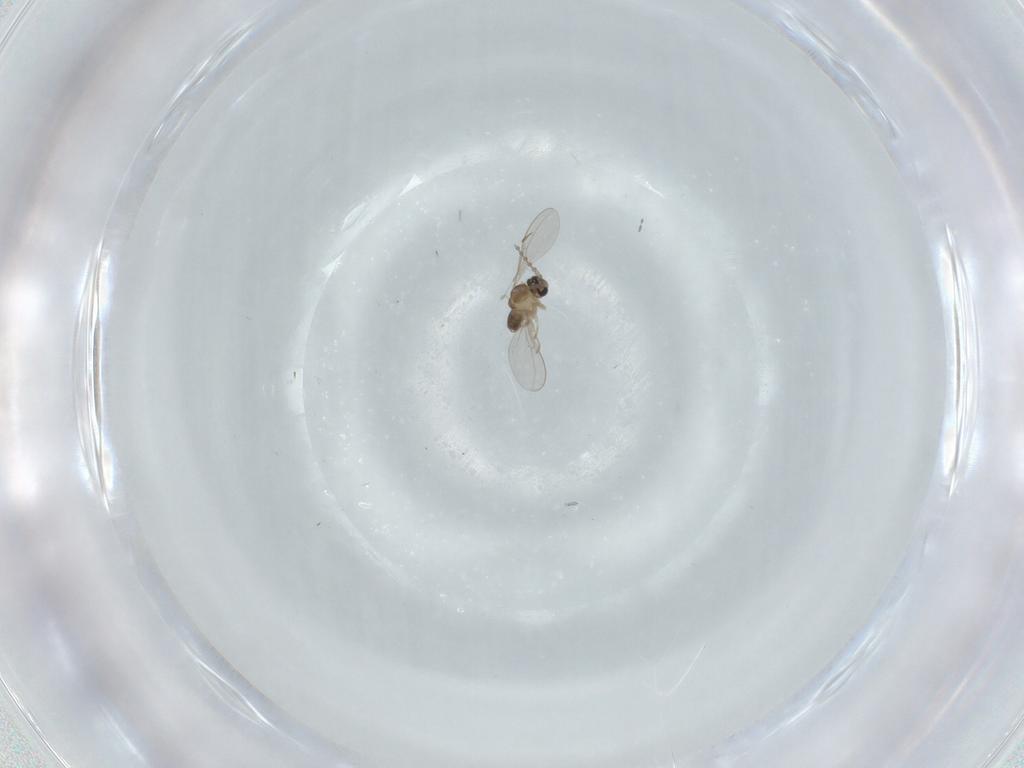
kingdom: Animalia
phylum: Arthropoda
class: Insecta
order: Diptera
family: Cecidomyiidae
